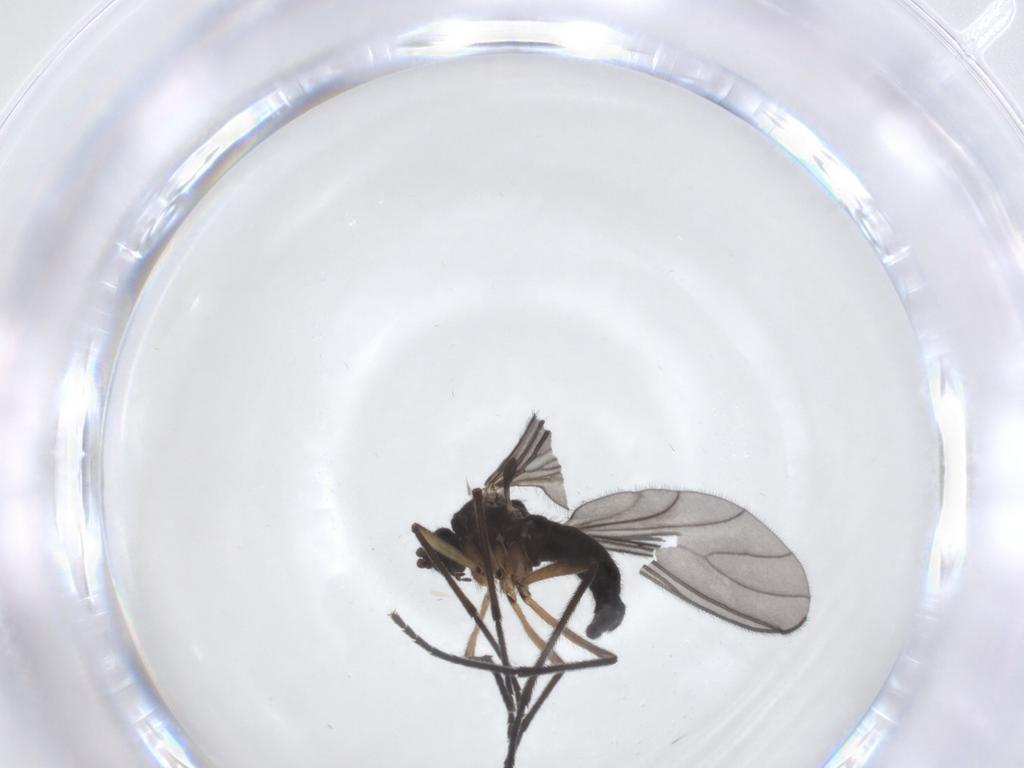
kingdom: Animalia
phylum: Arthropoda
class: Insecta
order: Diptera
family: Sciaridae
